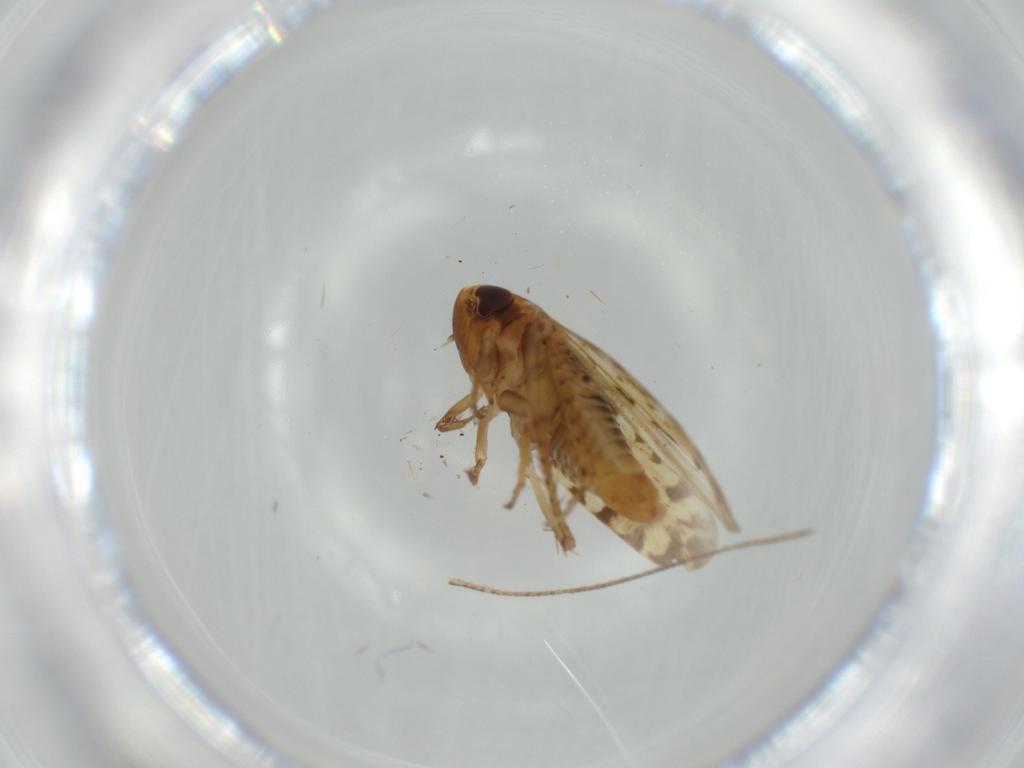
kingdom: Animalia
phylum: Arthropoda
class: Insecta
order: Hemiptera
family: Cicadellidae
